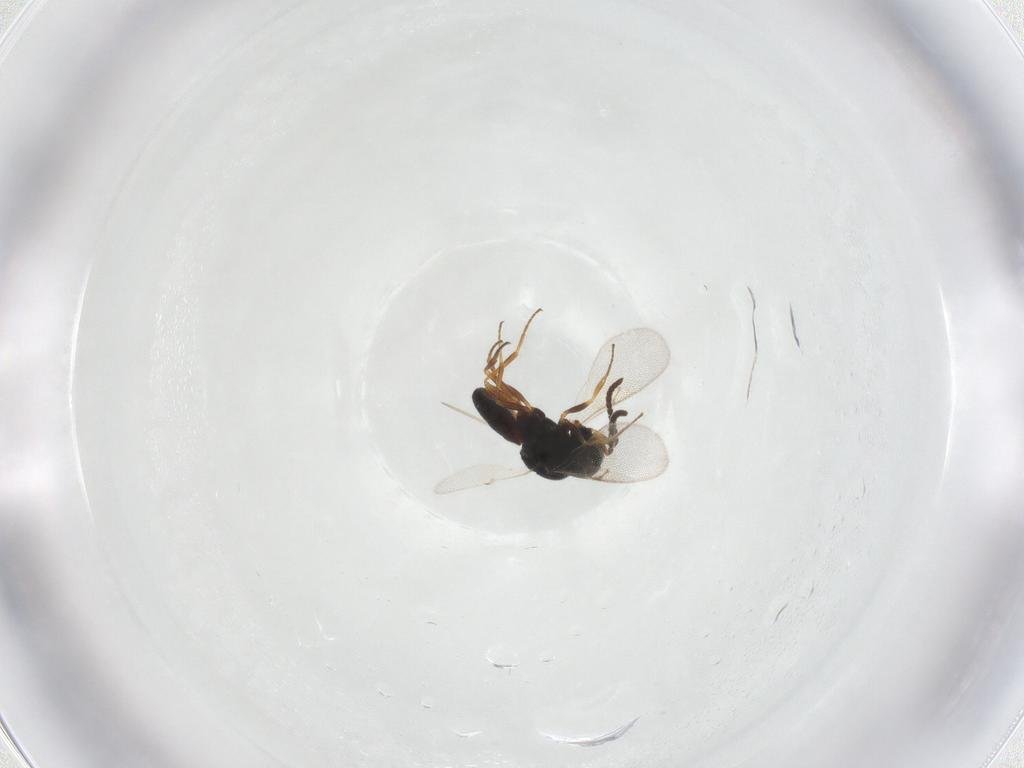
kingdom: Animalia
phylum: Arthropoda
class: Insecta
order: Hymenoptera
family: Scelionidae
